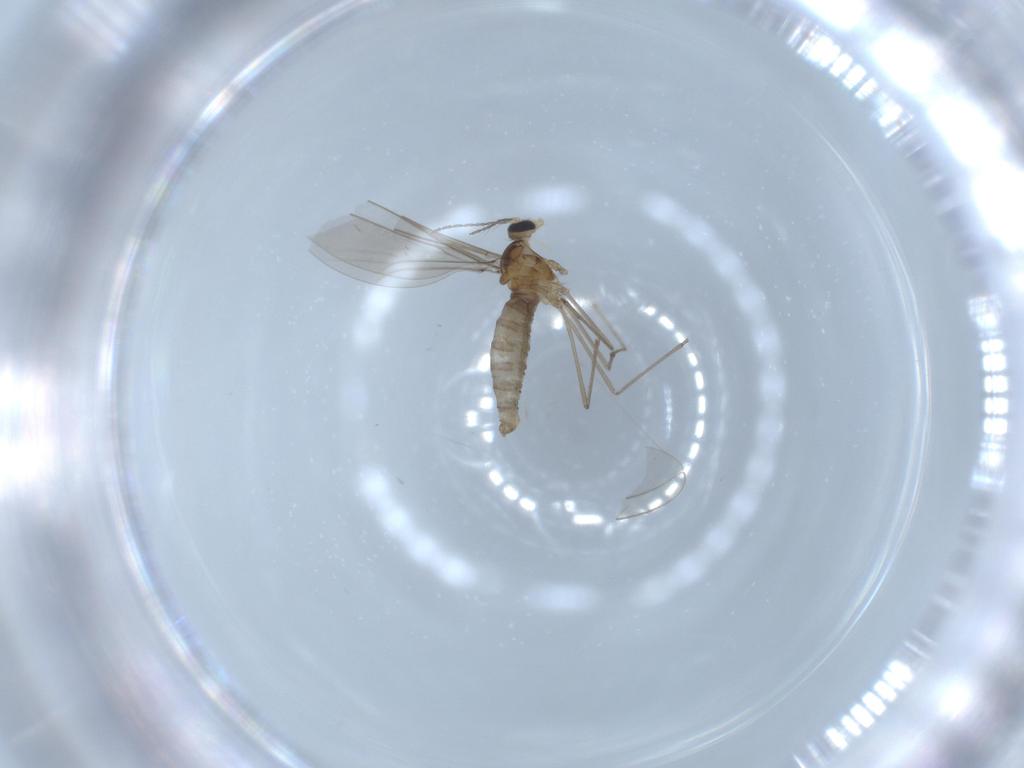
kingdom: Animalia
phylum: Arthropoda
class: Insecta
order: Diptera
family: Cecidomyiidae
